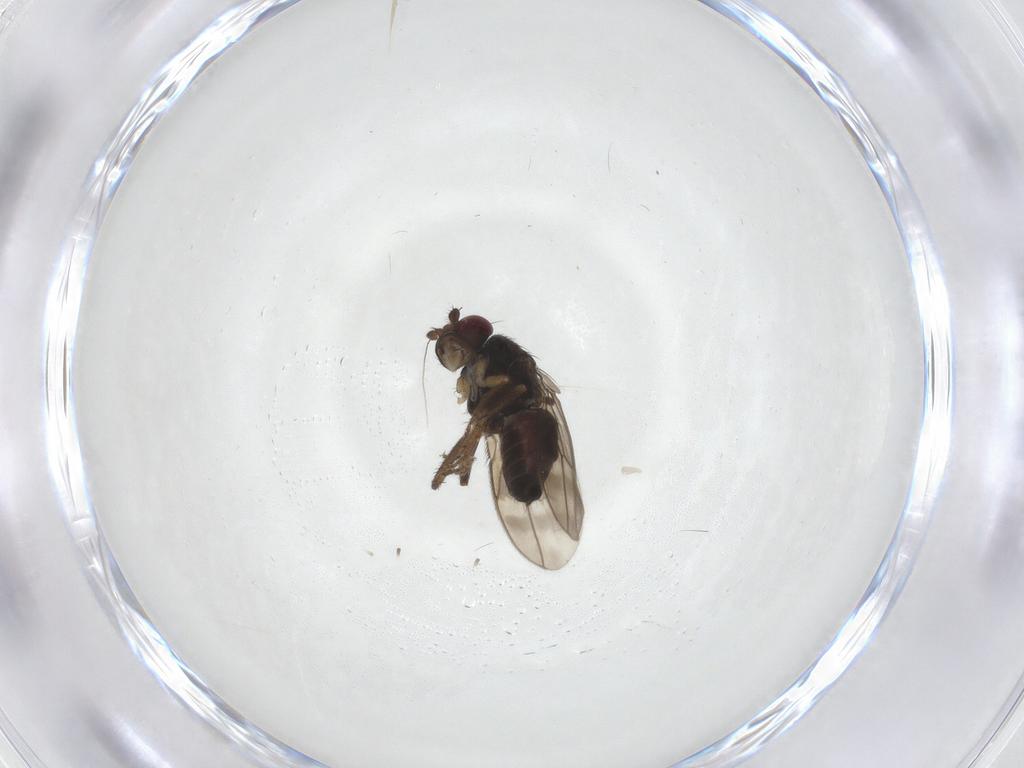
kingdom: Animalia
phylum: Arthropoda
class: Insecta
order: Diptera
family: Sphaeroceridae
